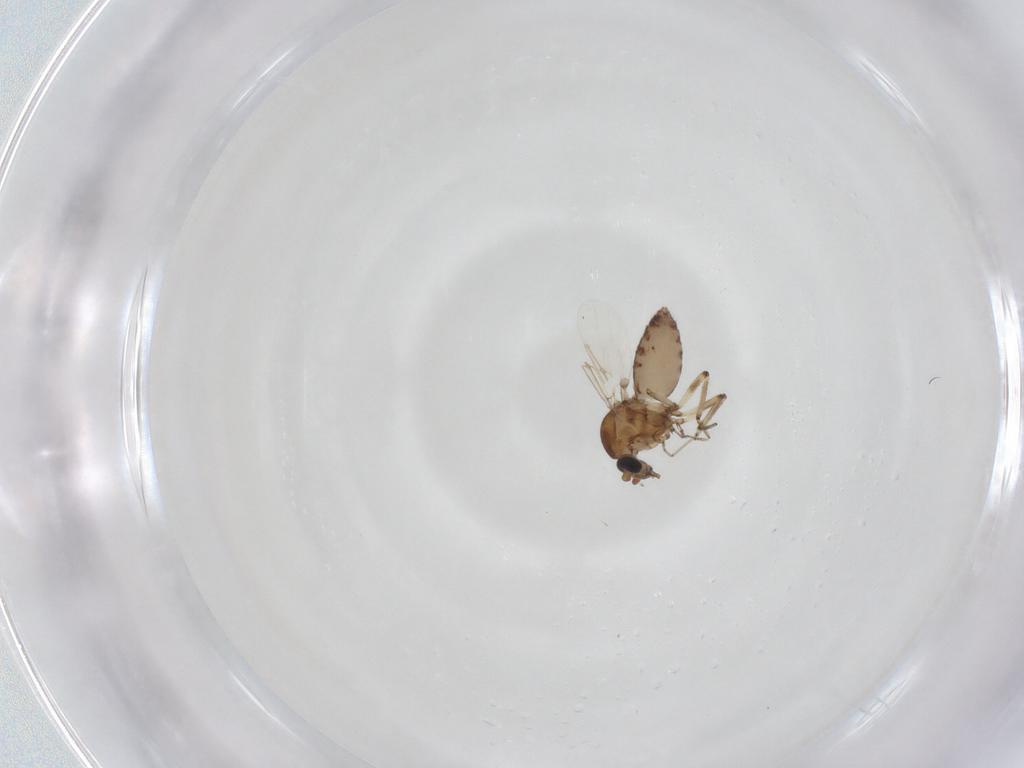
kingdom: Animalia
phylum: Arthropoda
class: Insecta
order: Diptera
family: Ceratopogonidae
